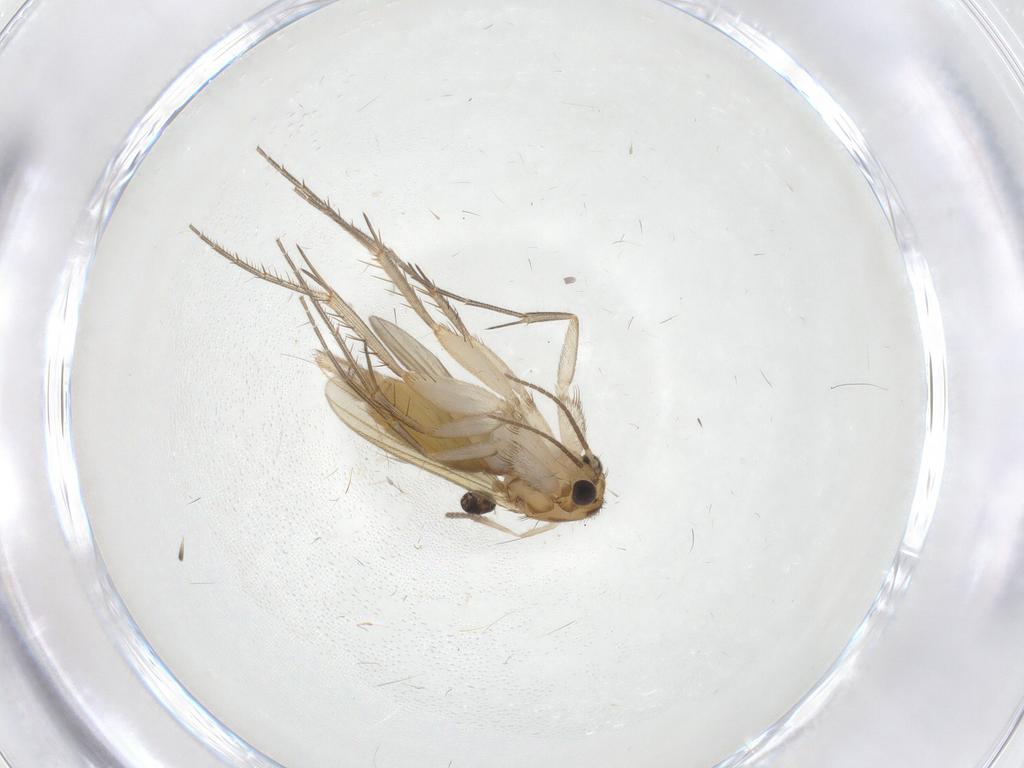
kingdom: Animalia
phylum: Arthropoda
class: Insecta
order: Diptera
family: Mycetophilidae
